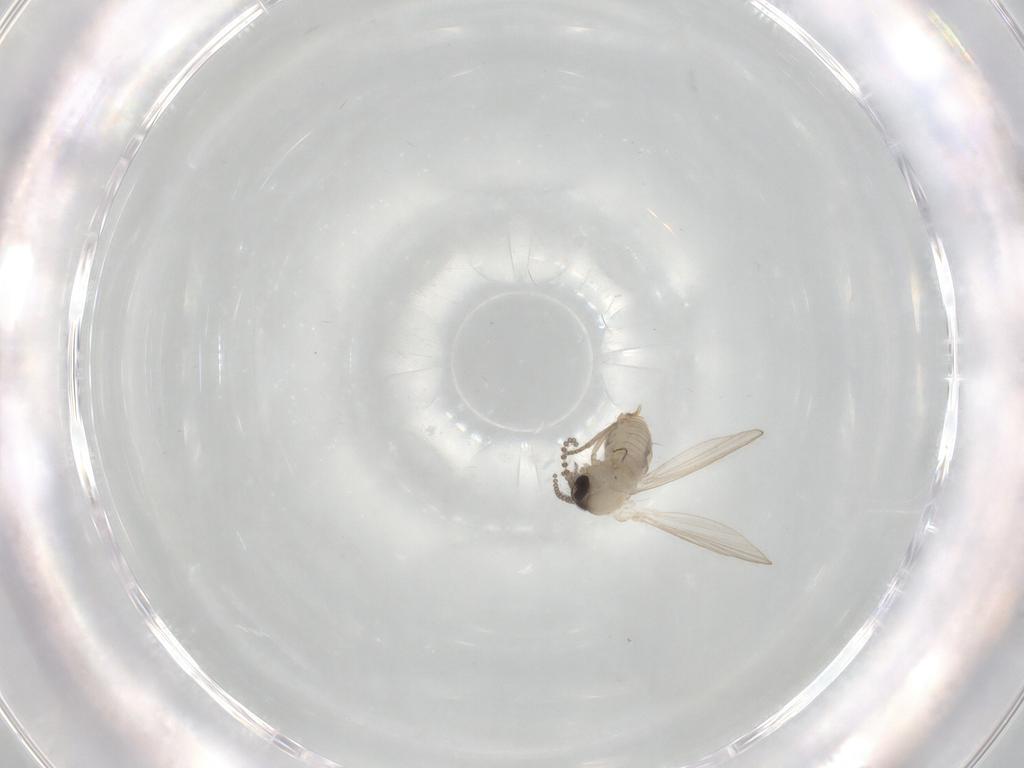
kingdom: Animalia
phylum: Arthropoda
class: Insecta
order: Diptera
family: Psychodidae
